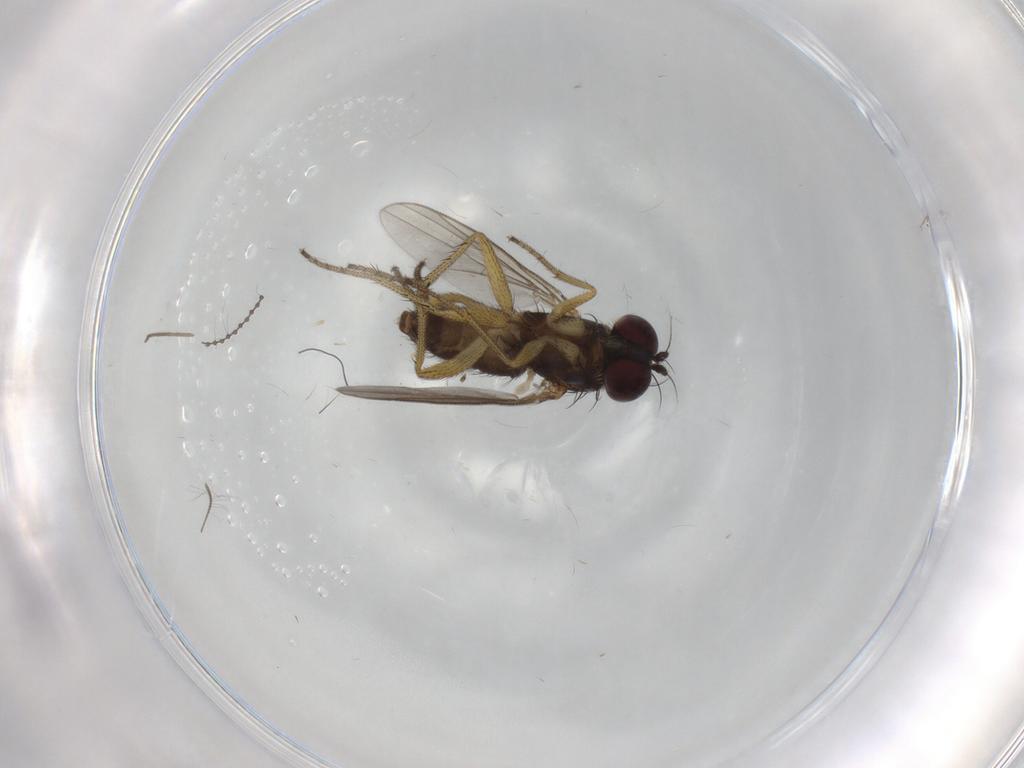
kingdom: Animalia
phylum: Arthropoda
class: Insecta
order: Diptera
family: Cecidomyiidae
